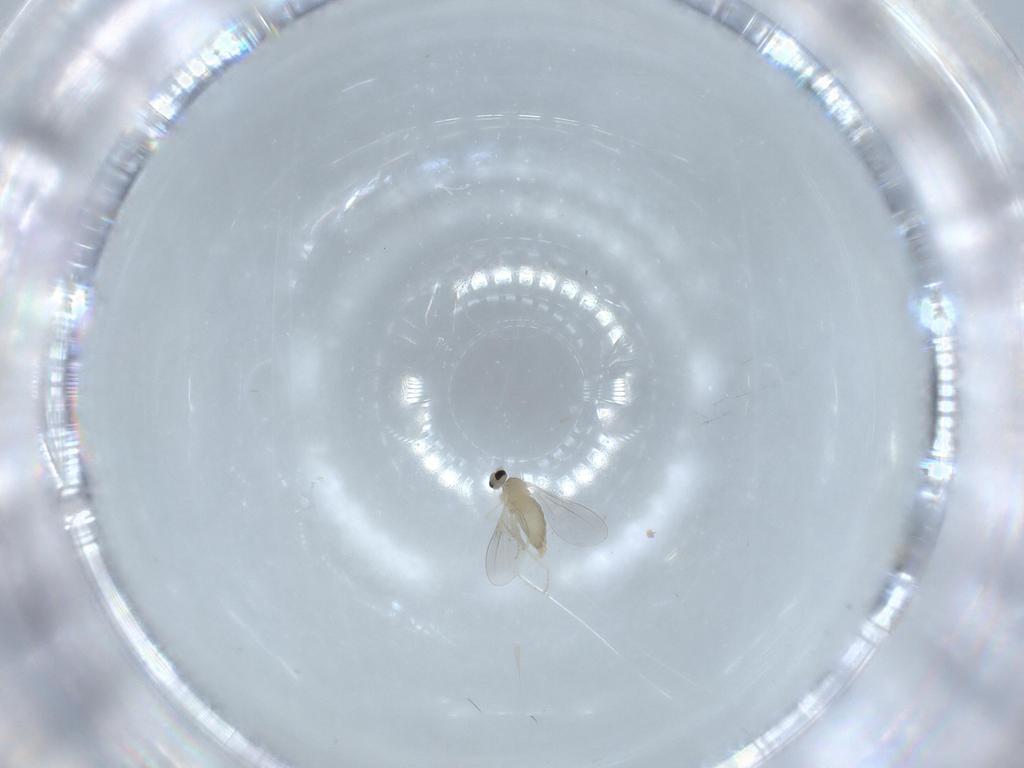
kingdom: Animalia
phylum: Arthropoda
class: Insecta
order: Diptera
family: Cecidomyiidae
